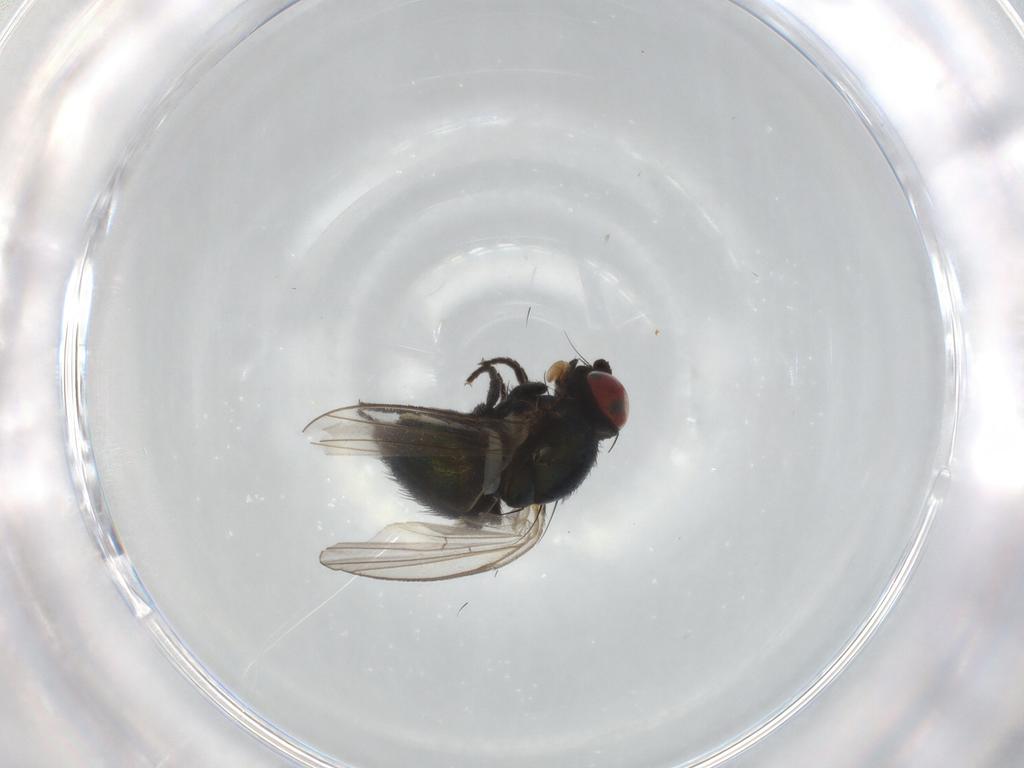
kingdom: Animalia
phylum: Arthropoda
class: Insecta
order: Diptera
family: Agromyzidae
